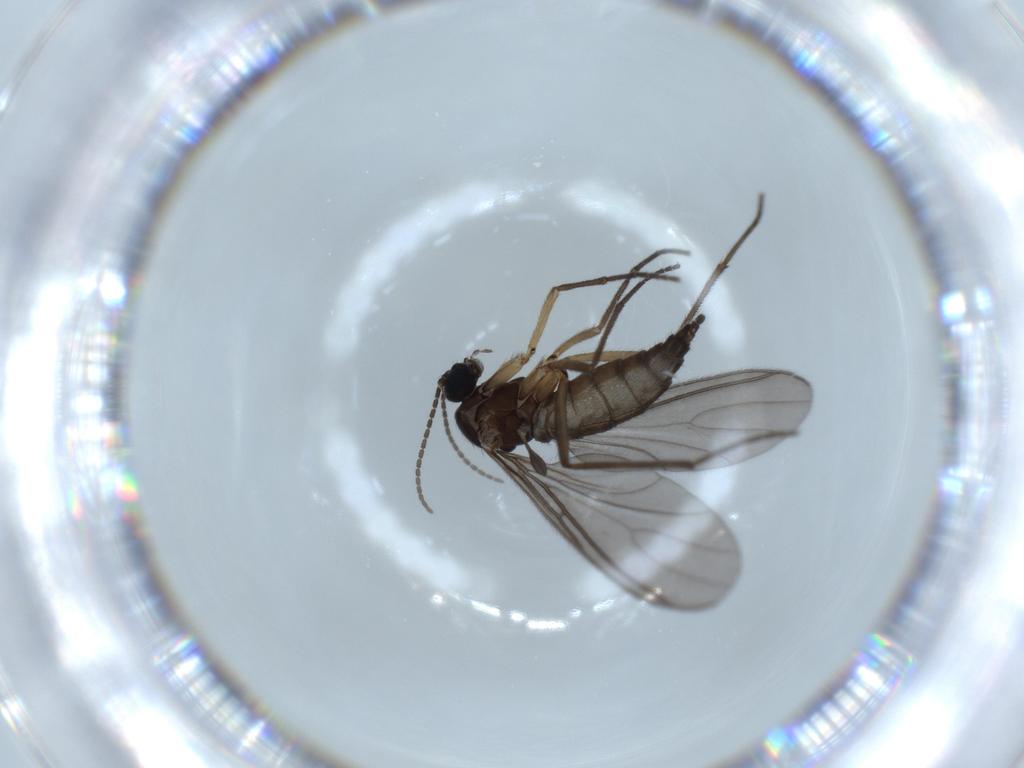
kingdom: Animalia
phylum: Arthropoda
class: Insecta
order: Diptera
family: Sciaridae
